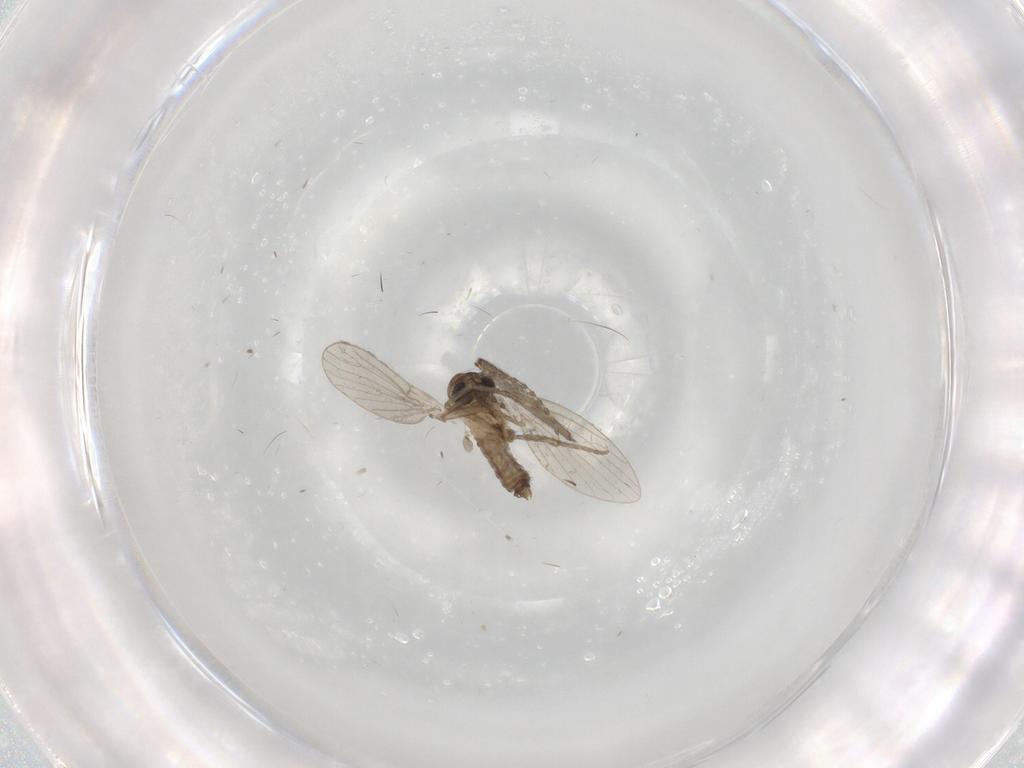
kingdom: Animalia
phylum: Arthropoda
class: Insecta
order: Diptera
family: Sciaridae
